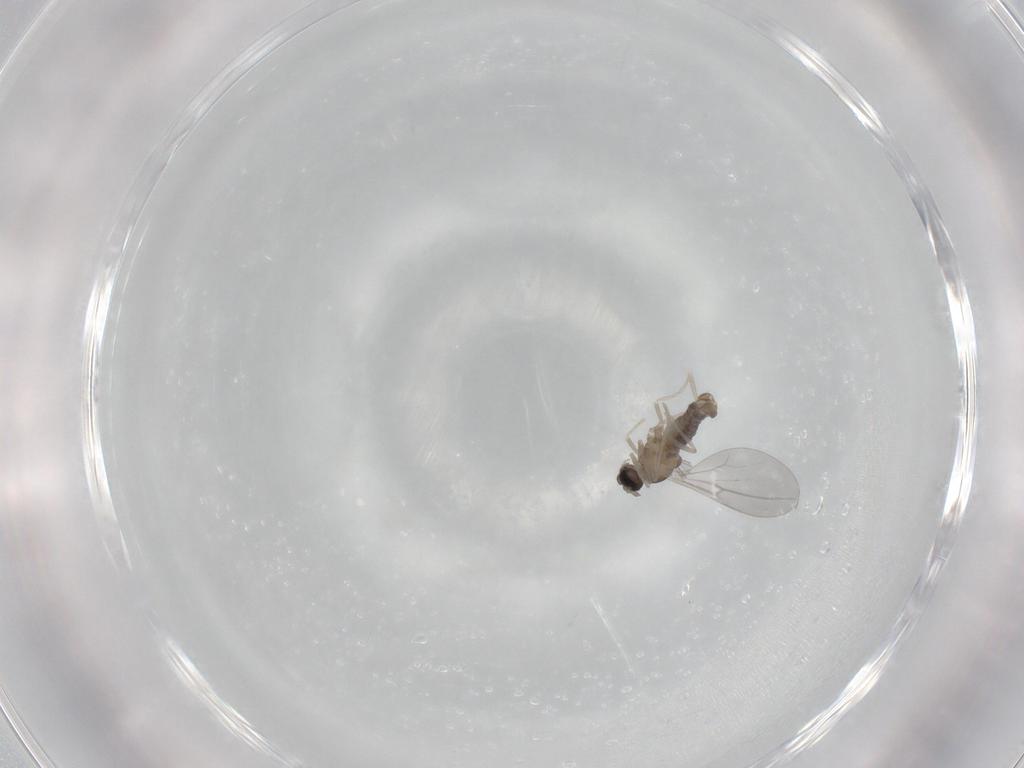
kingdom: Animalia
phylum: Arthropoda
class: Insecta
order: Diptera
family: Cecidomyiidae
